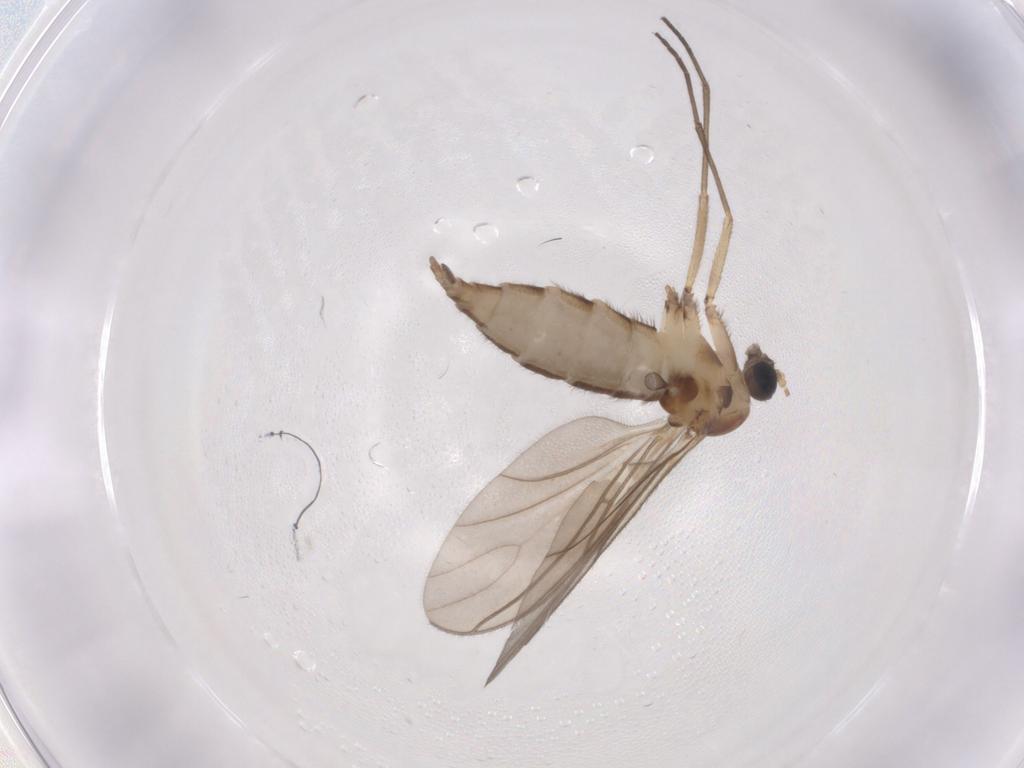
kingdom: Animalia
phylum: Arthropoda
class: Insecta
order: Diptera
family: Sciaridae
